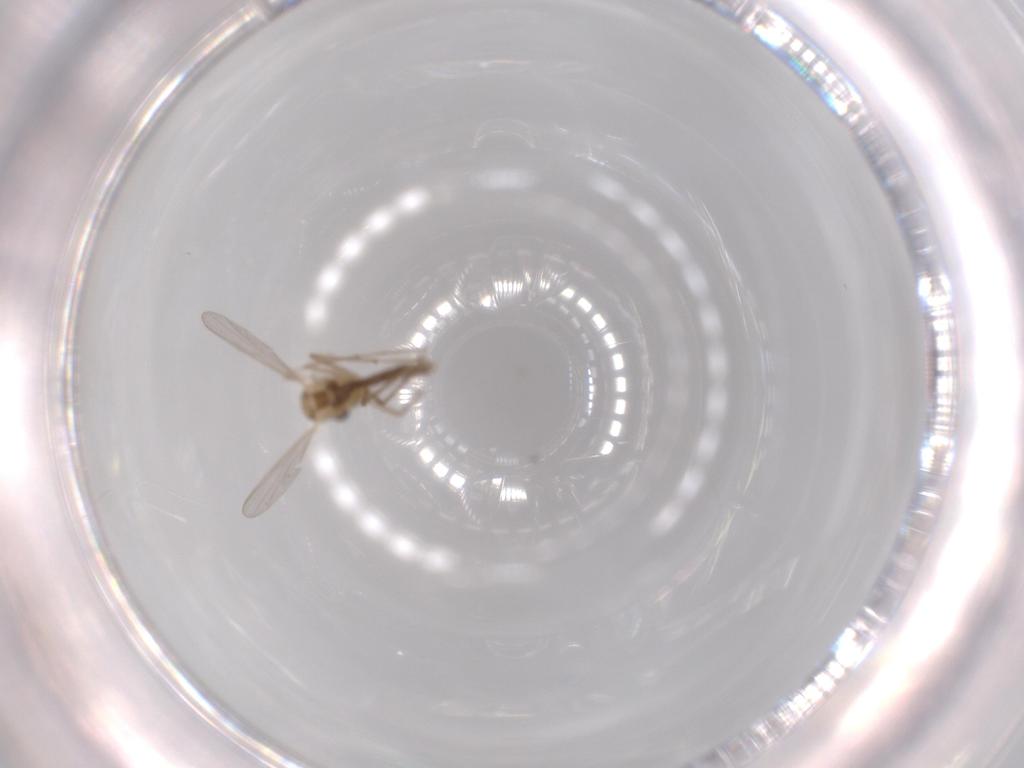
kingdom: Animalia
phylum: Arthropoda
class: Insecta
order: Diptera
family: Chironomidae
